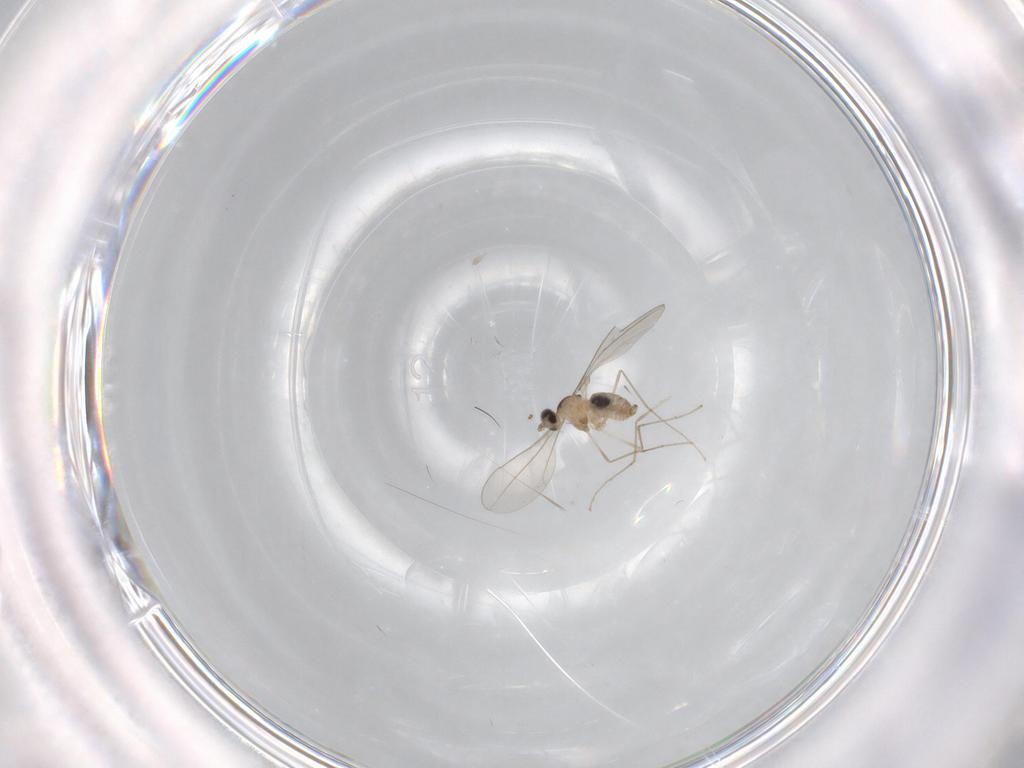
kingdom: Animalia
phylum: Arthropoda
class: Insecta
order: Diptera
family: Cecidomyiidae
